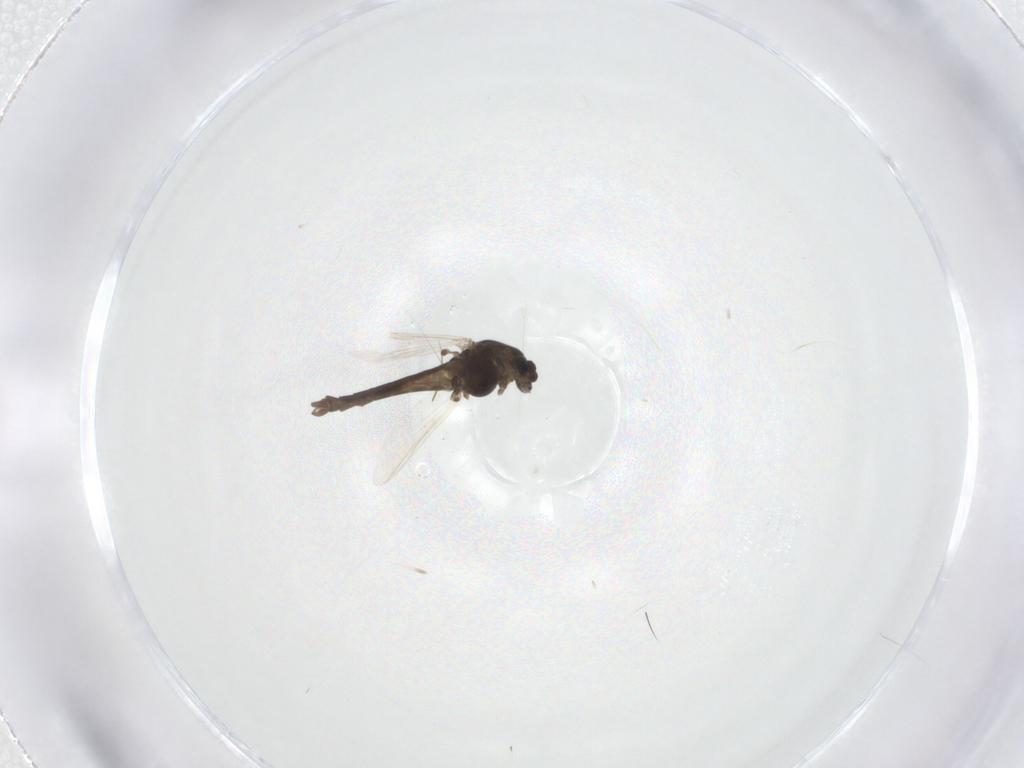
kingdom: Animalia
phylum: Arthropoda
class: Insecta
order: Diptera
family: Chironomidae
